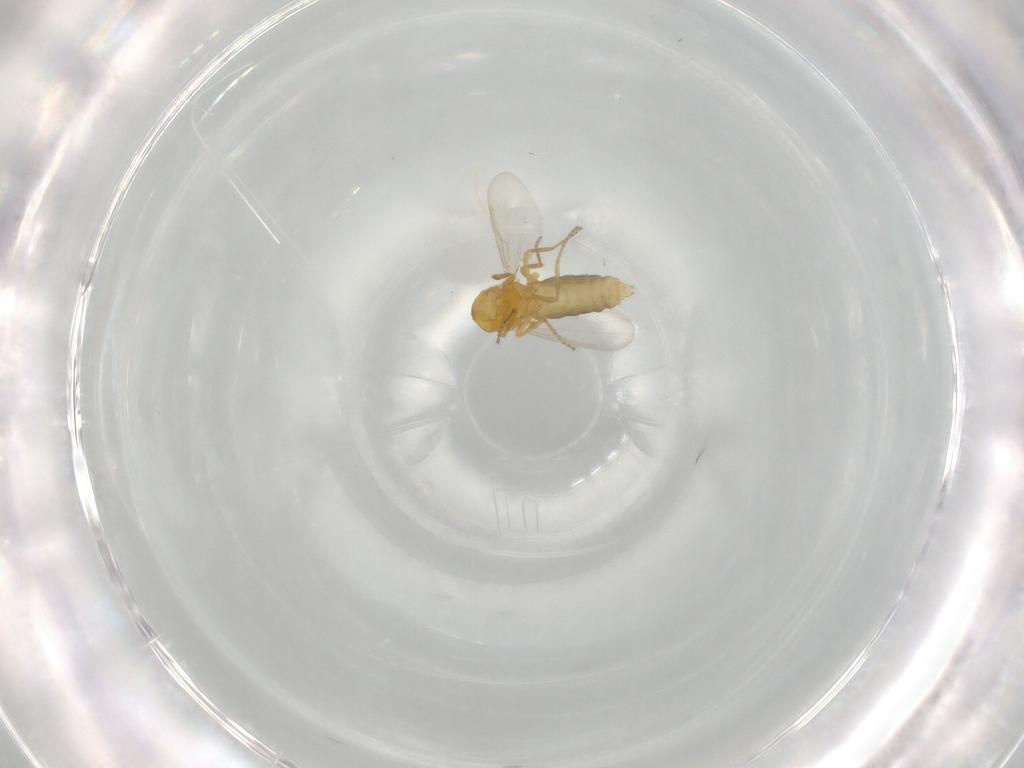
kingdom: Animalia
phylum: Arthropoda
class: Insecta
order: Diptera
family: Ceratopogonidae
